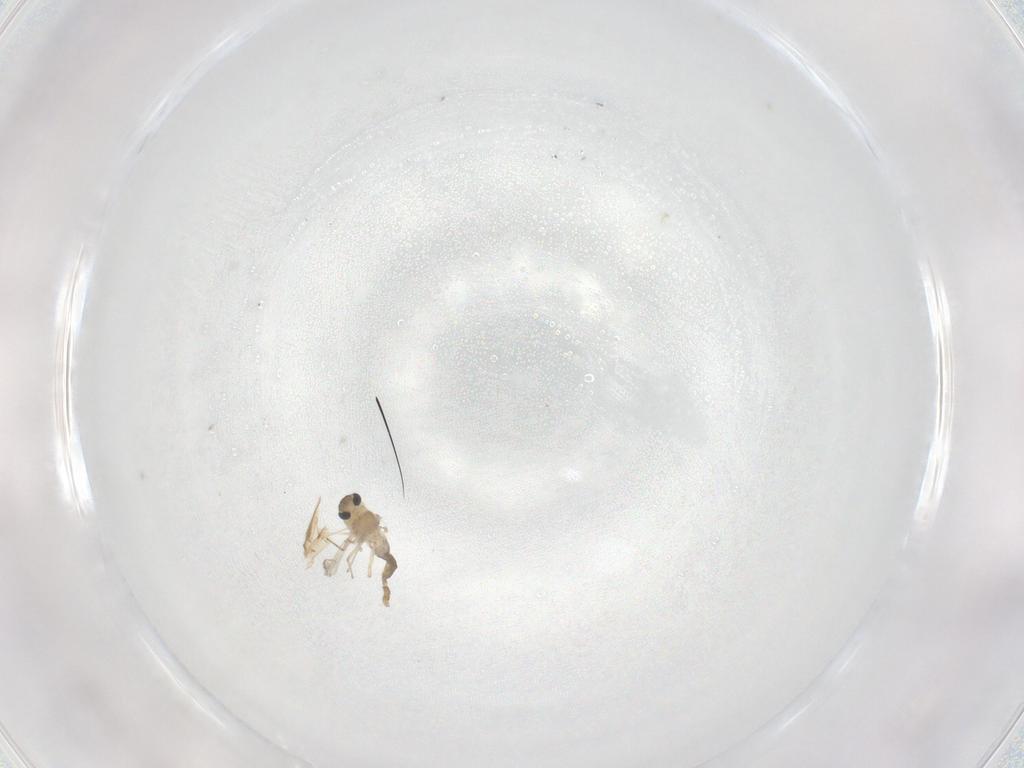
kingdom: Animalia
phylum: Arthropoda
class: Insecta
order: Diptera
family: Chironomidae
